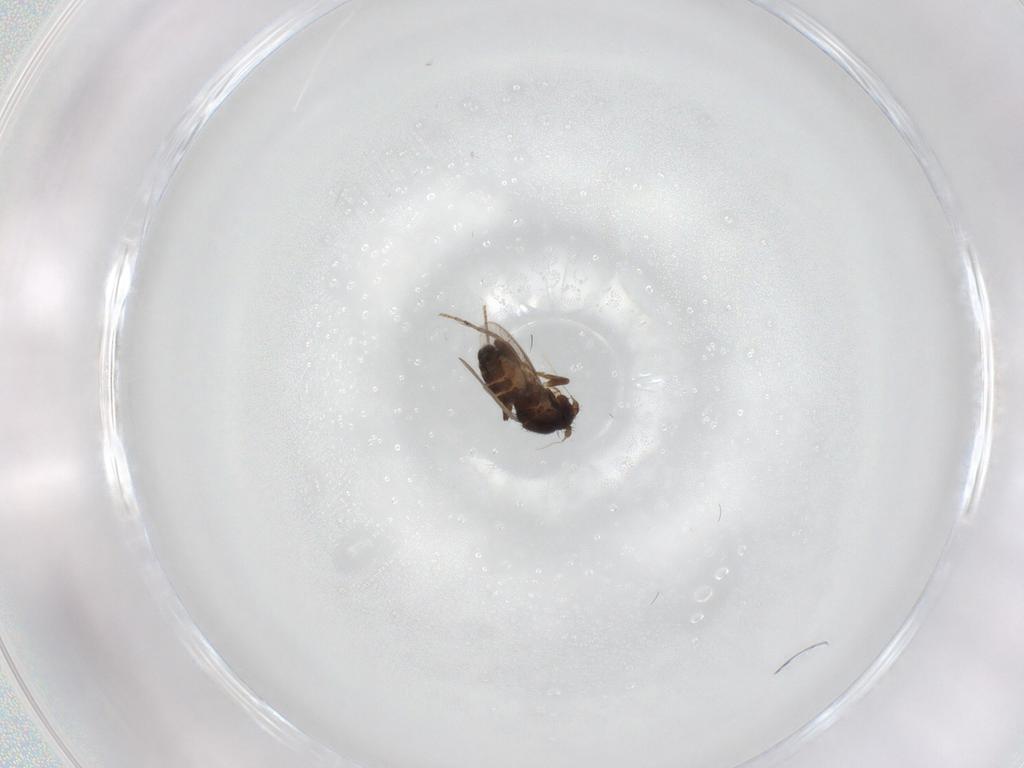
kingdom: Animalia
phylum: Arthropoda
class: Insecta
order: Diptera
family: Sphaeroceridae
